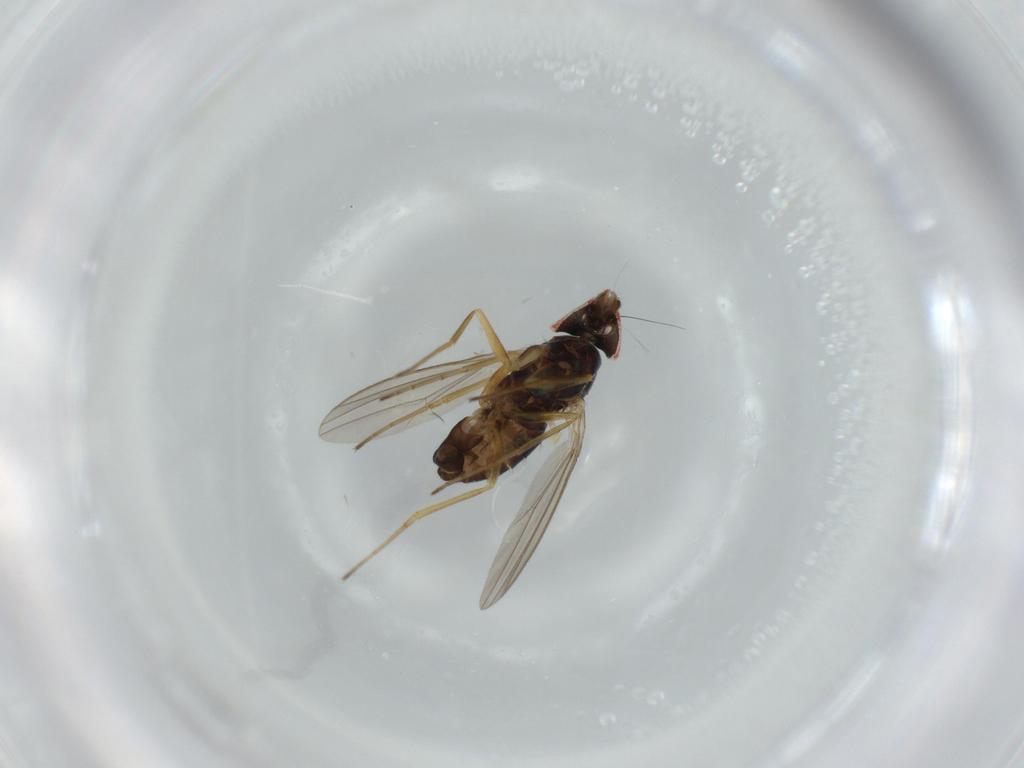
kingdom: Animalia
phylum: Arthropoda
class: Insecta
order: Diptera
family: Dolichopodidae
